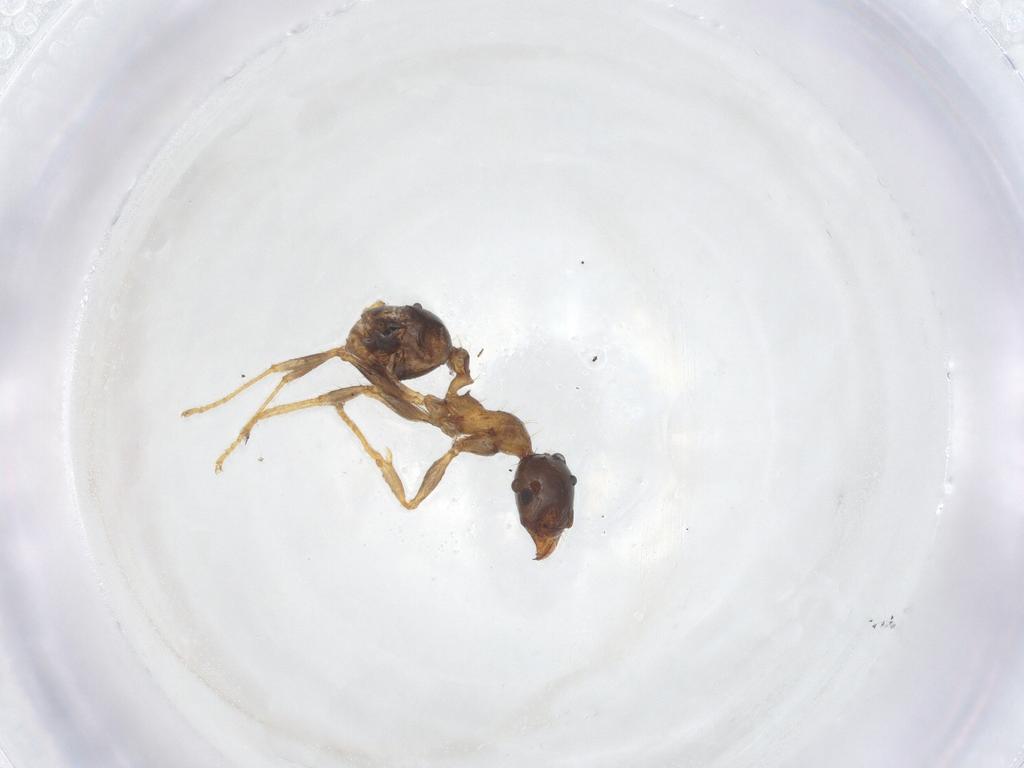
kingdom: Animalia
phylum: Arthropoda
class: Insecta
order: Hymenoptera
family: Formicidae
